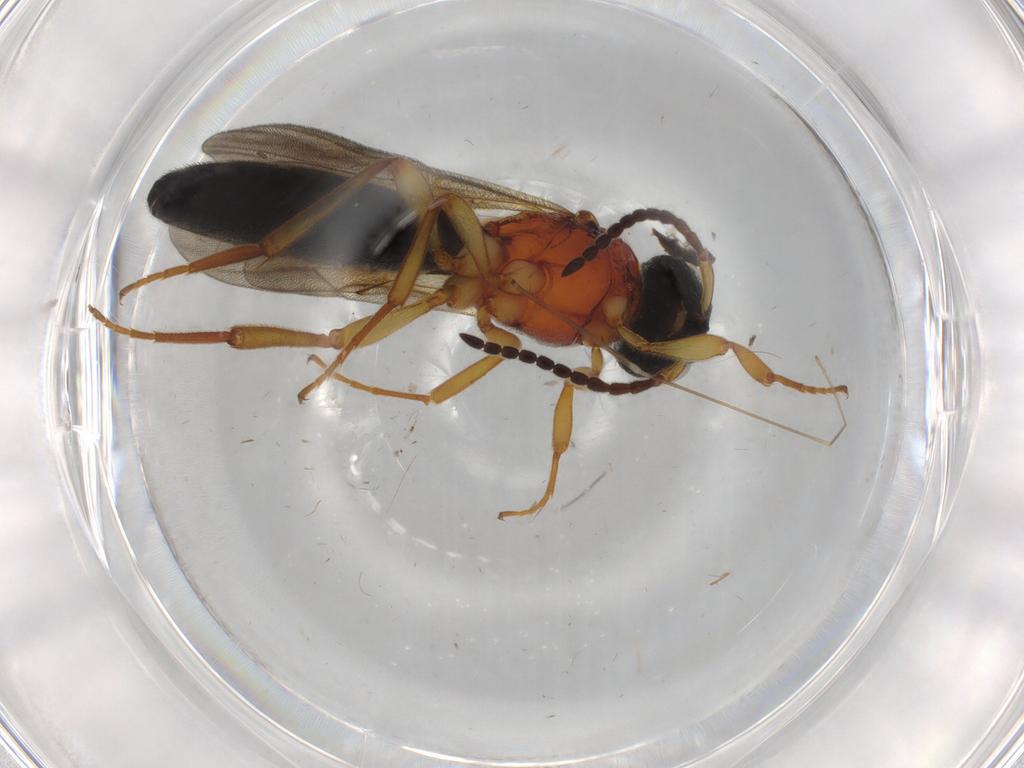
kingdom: Animalia
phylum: Arthropoda
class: Insecta
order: Hymenoptera
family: Scelionidae
